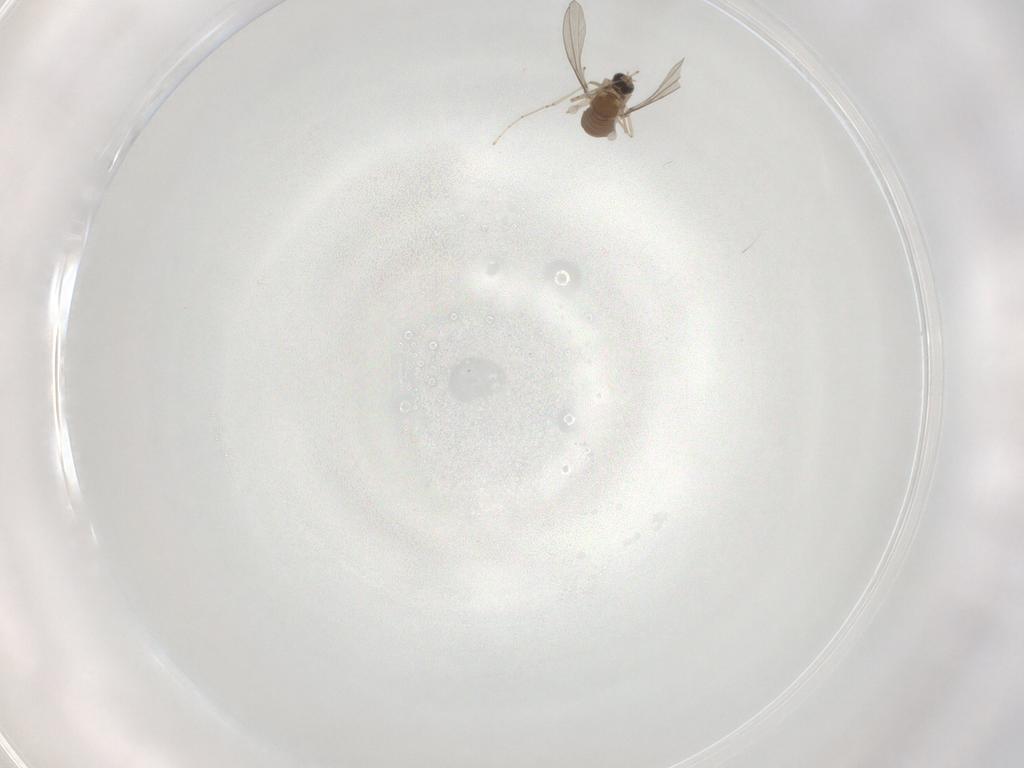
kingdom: Animalia
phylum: Arthropoda
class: Insecta
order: Diptera
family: Cecidomyiidae
